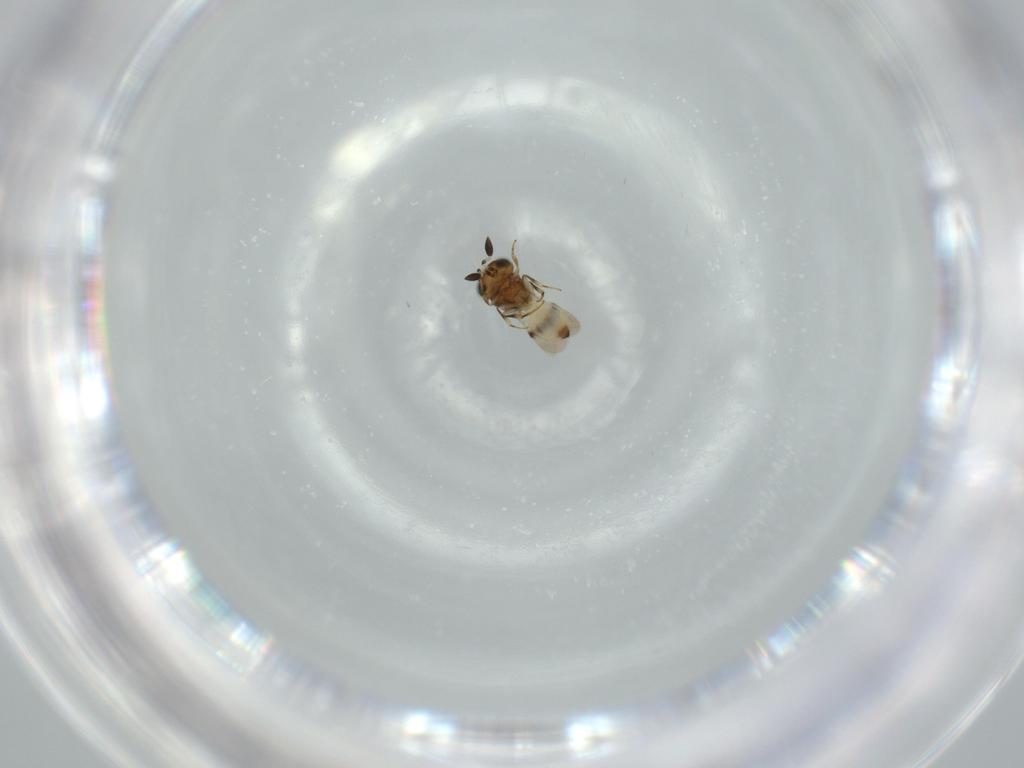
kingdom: Animalia
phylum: Arthropoda
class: Arachnida
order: Araneae
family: Pholcidae
